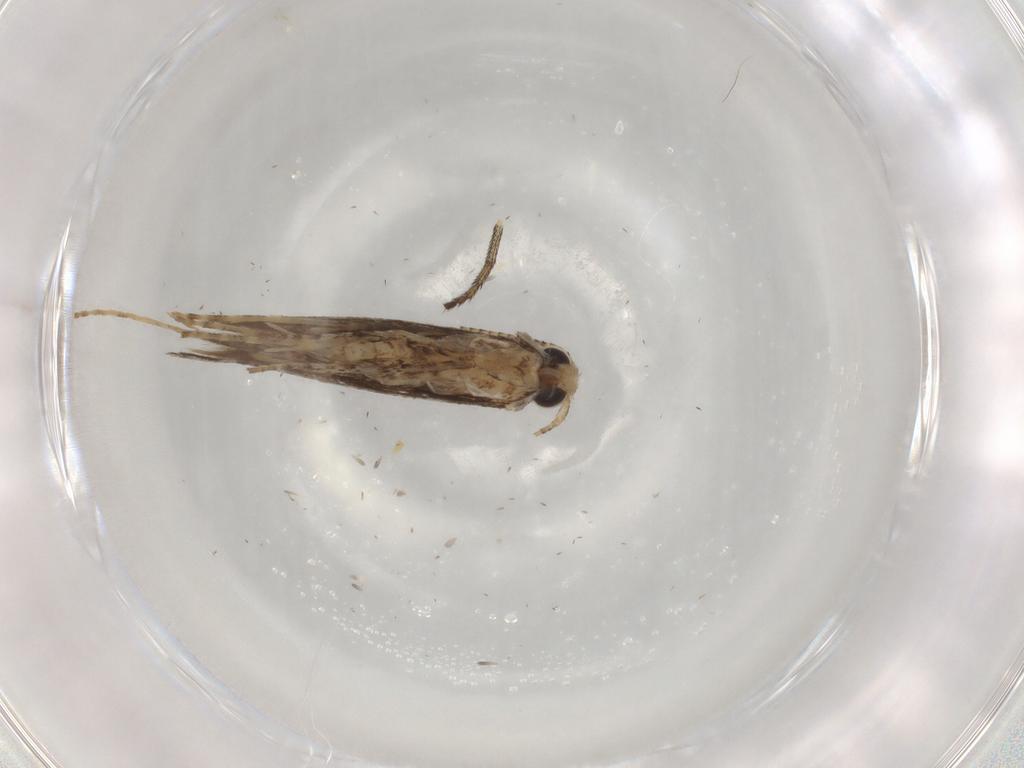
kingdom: Animalia
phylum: Arthropoda
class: Insecta
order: Lepidoptera
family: Gracillariidae
